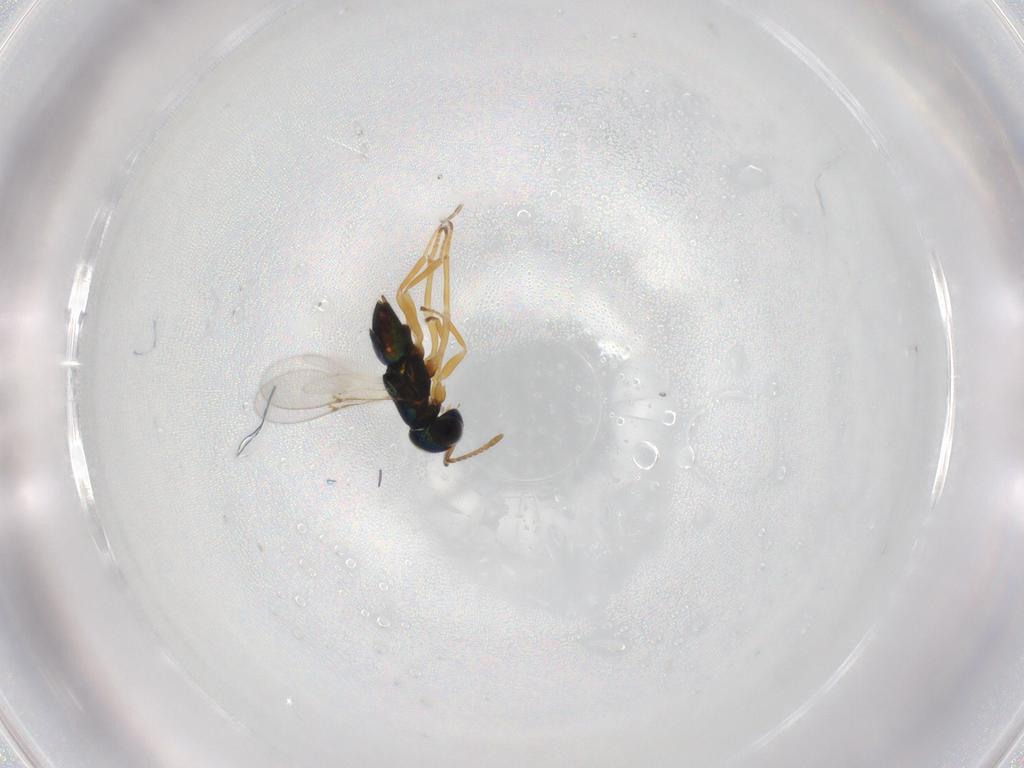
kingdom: Animalia
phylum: Arthropoda
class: Insecta
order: Hymenoptera
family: Encyrtidae
